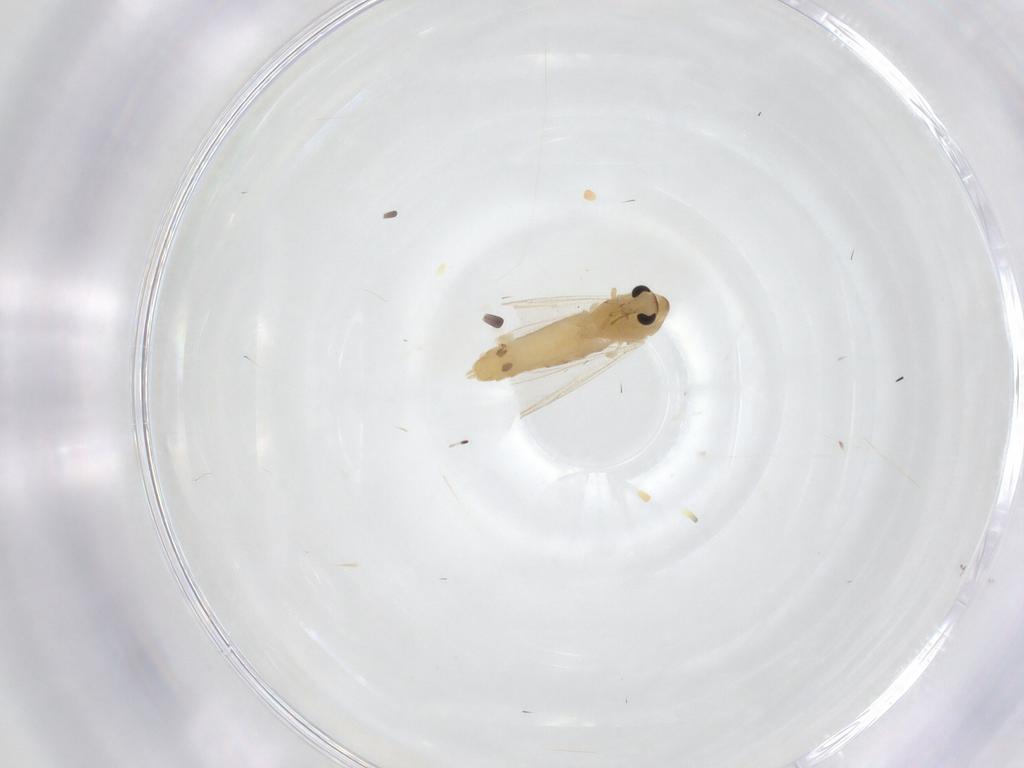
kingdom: Animalia
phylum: Arthropoda
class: Insecta
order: Diptera
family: Chironomidae
